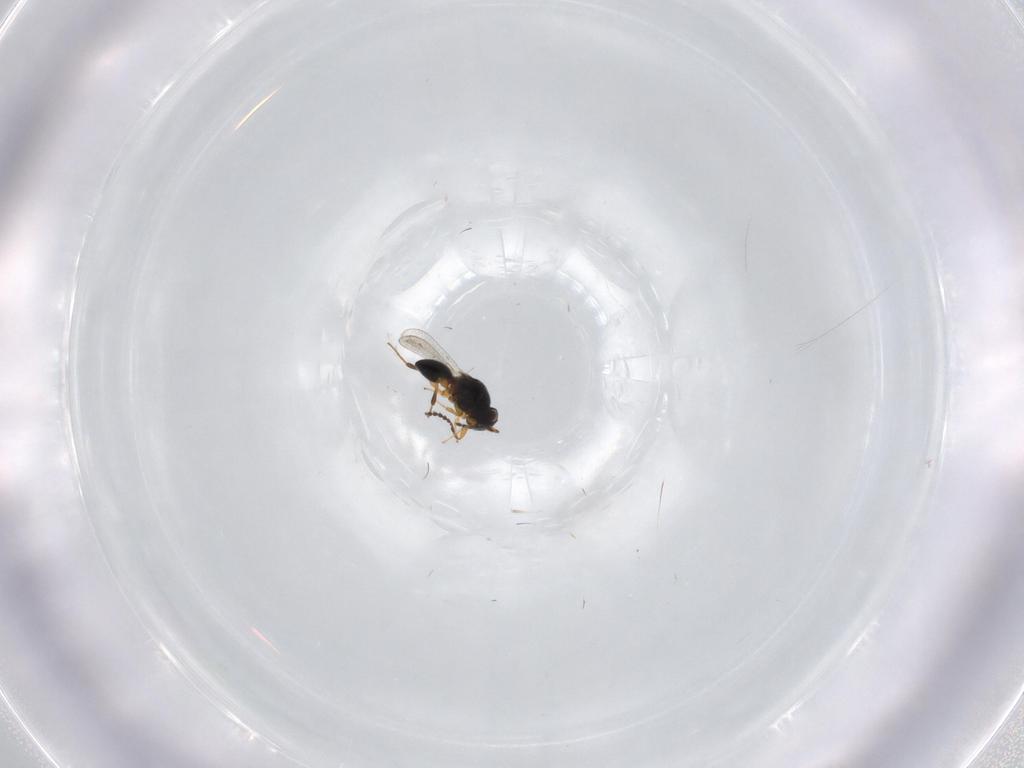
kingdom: Animalia
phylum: Arthropoda
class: Insecta
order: Hymenoptera
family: Platygastridae
